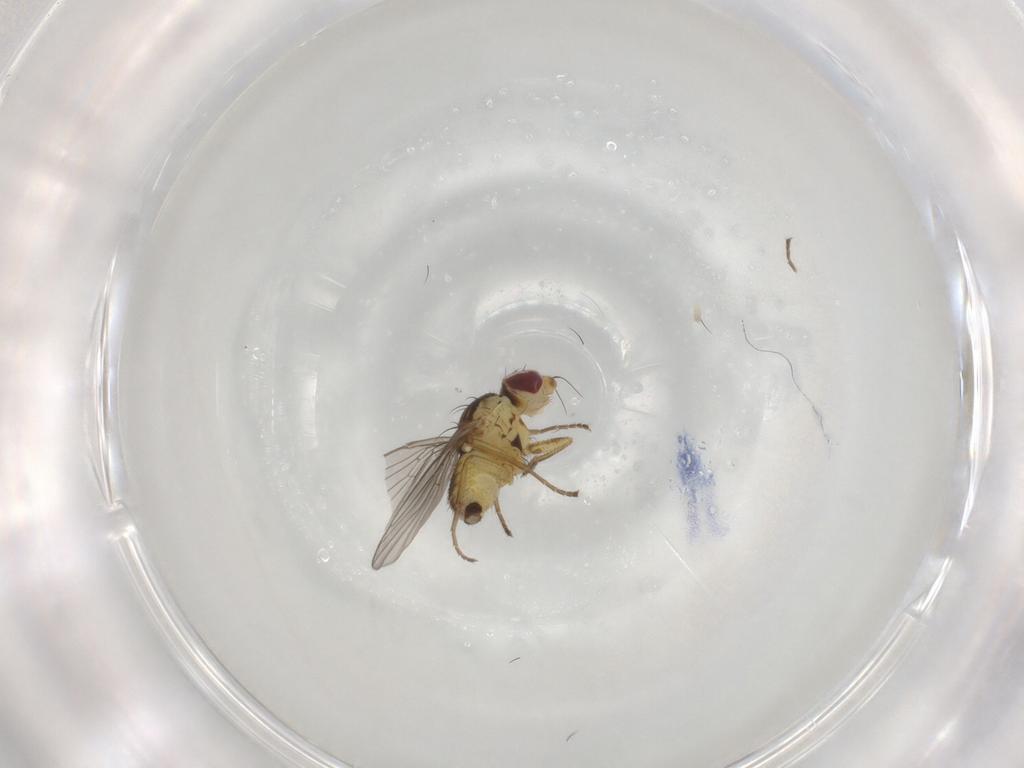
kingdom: Animalia
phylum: Arthropoda
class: Insecta
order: Diptera
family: Agromyzidae
